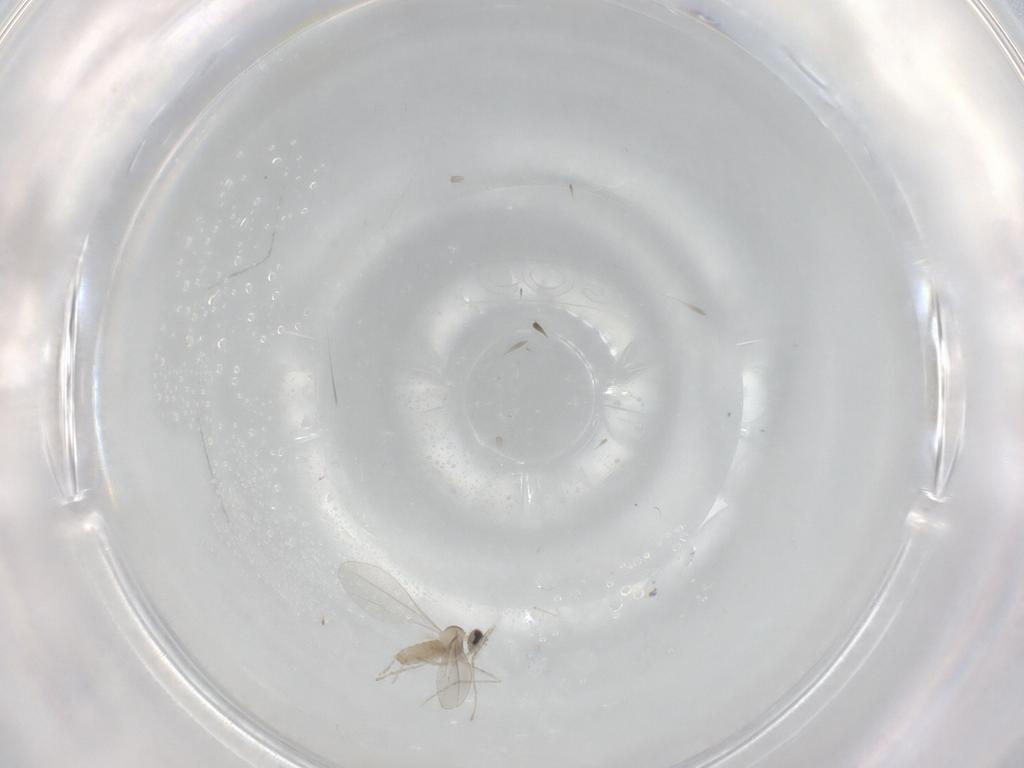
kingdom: Animalia
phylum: Arthropoda
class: Insecta
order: Diptera
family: Cecidomyiidae
